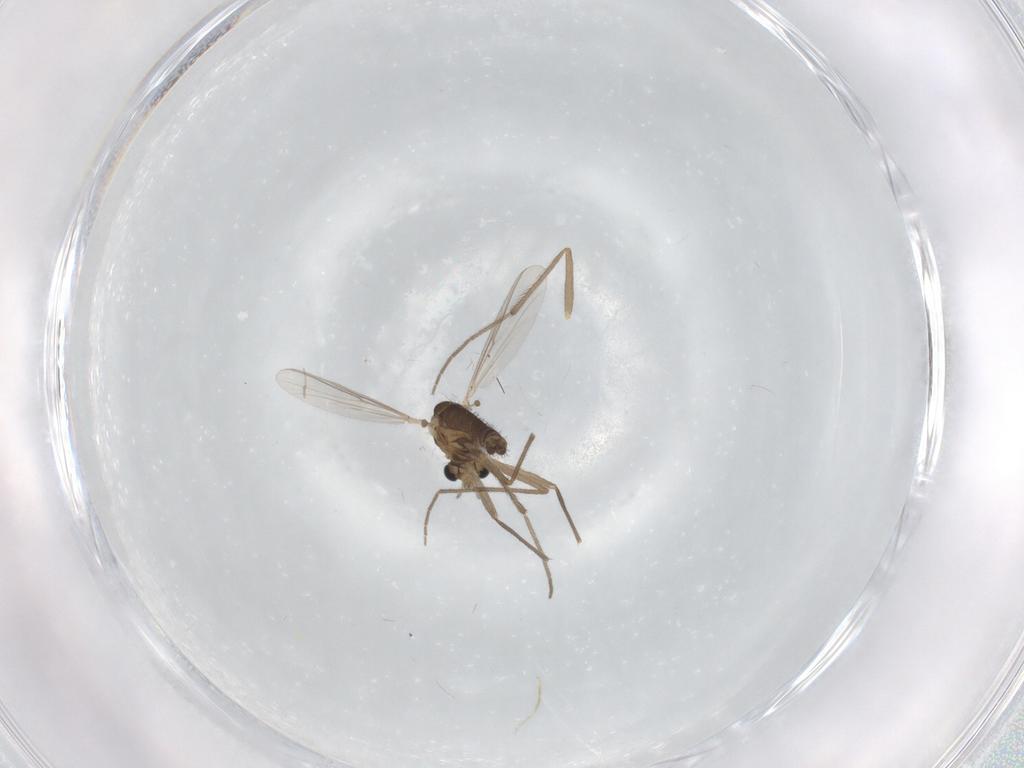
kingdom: Animalia
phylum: Arthropoda
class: Insecta
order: Diptera
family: Chironomidae
